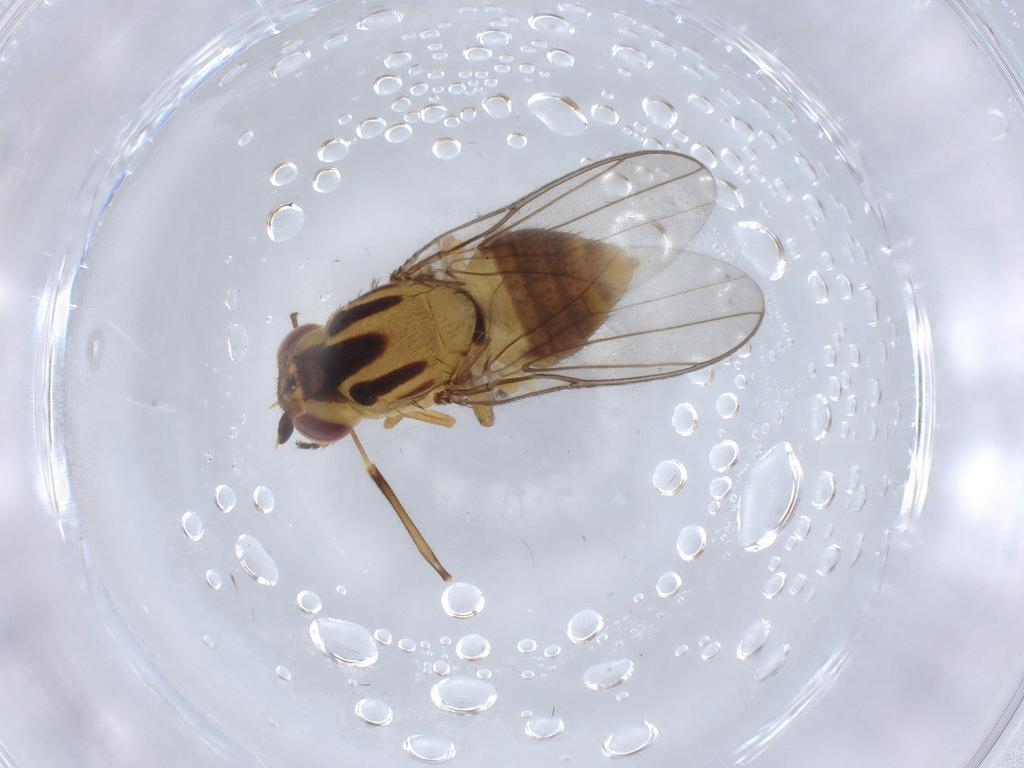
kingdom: Animalia
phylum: Arthropoda
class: Insecta
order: Diptera
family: Chloropidae
